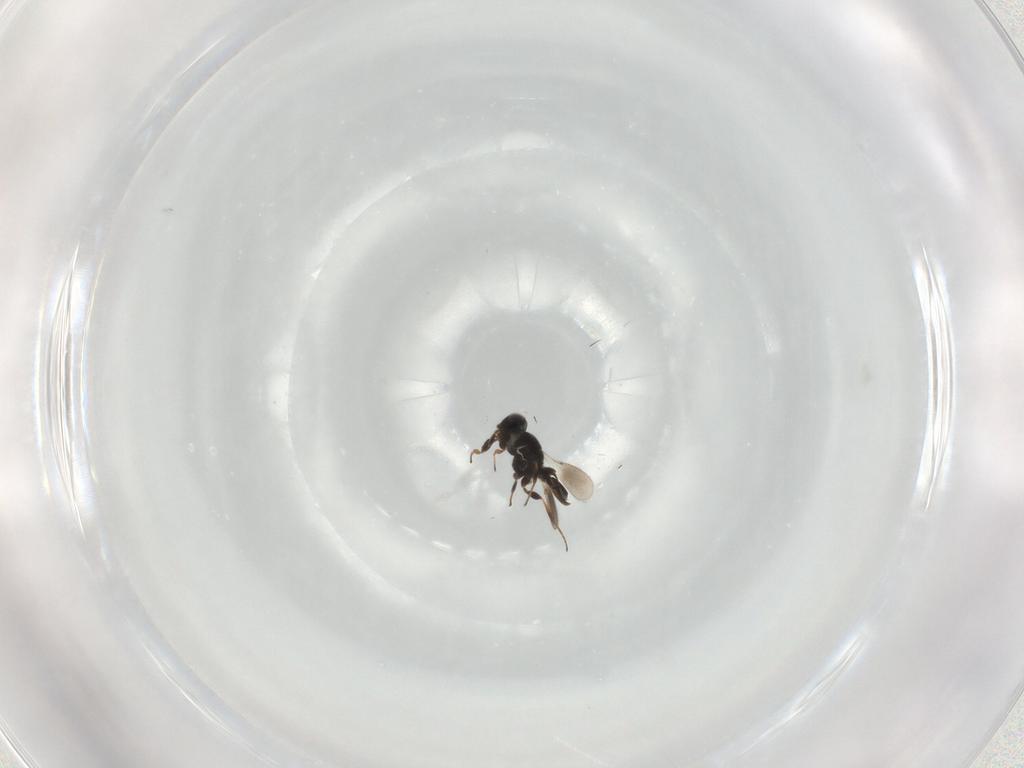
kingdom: Animalia
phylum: Arthropoda
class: Insecta
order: Hymenoptera
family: Platygastridae
